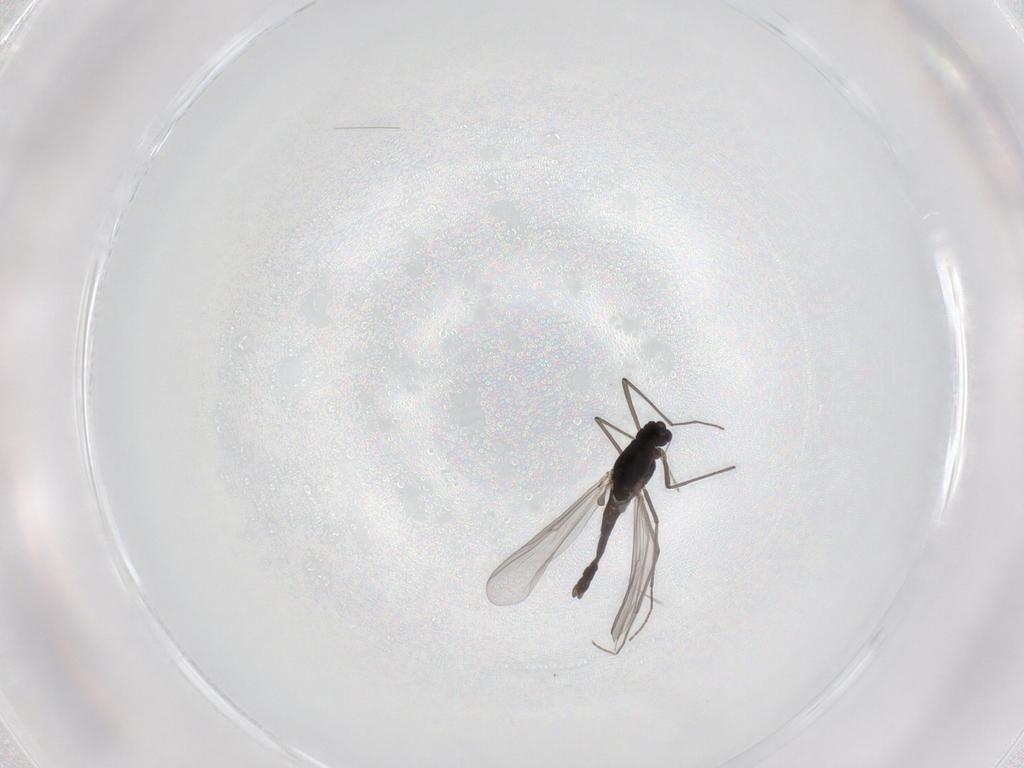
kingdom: Animalia
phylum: Arthropoda
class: Insecta
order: Diptera
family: Chironomidae
